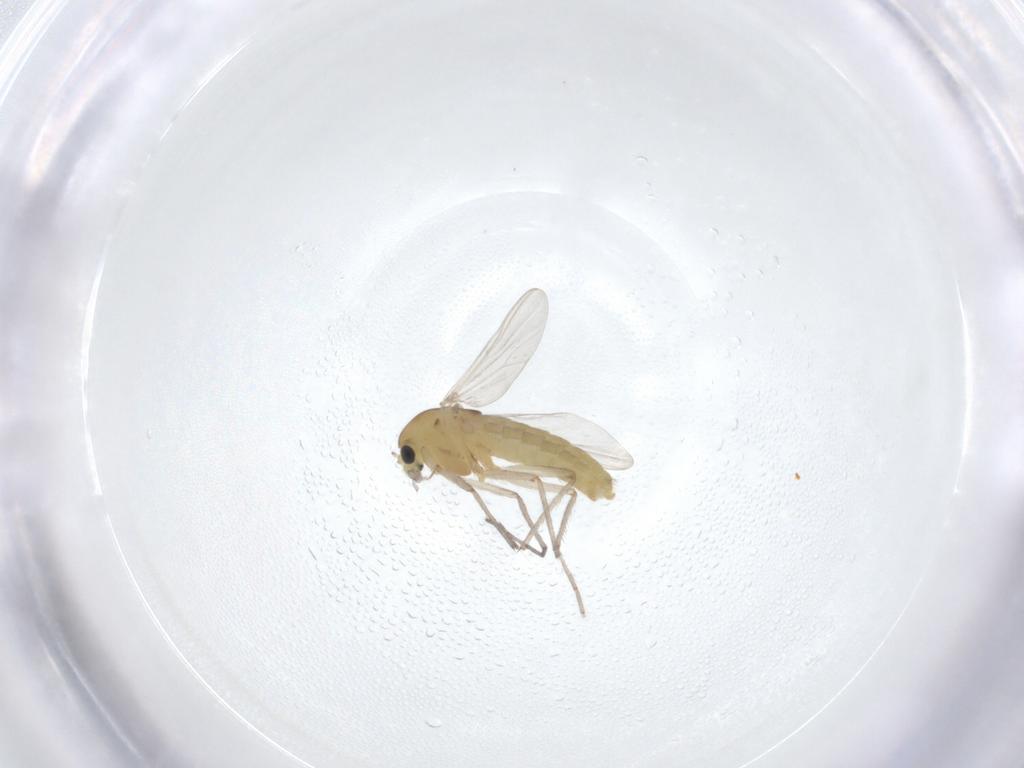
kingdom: Animalia
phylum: Arthropoda
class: Insecta
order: Diptera
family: Chironomidae
